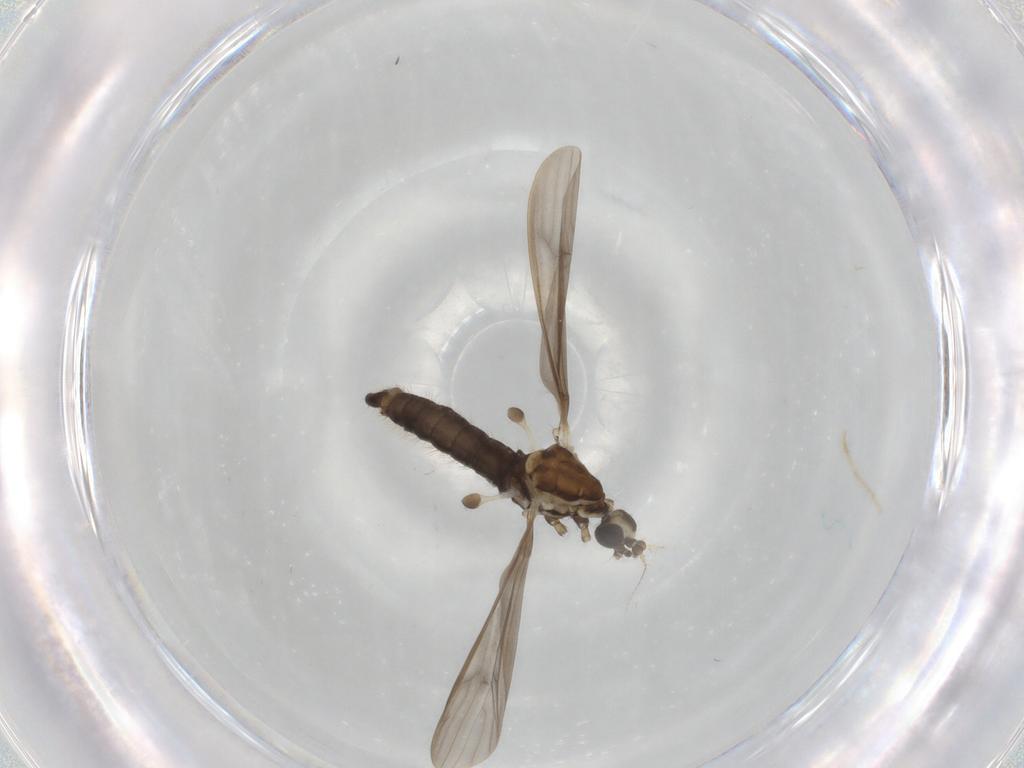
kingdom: Animalia
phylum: Arthropoda
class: Insecta
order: Diptera
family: Limoniidae
